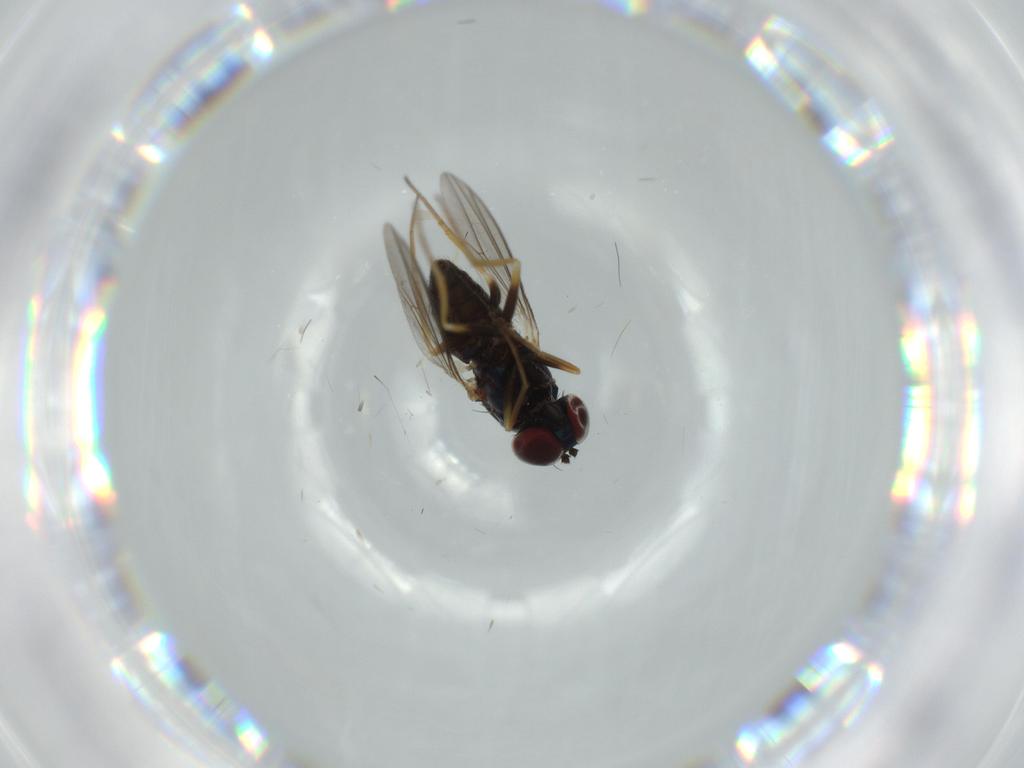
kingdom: Animalia
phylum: Arthropoda
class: Insecta
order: Diptera
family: Dolichopodidae
